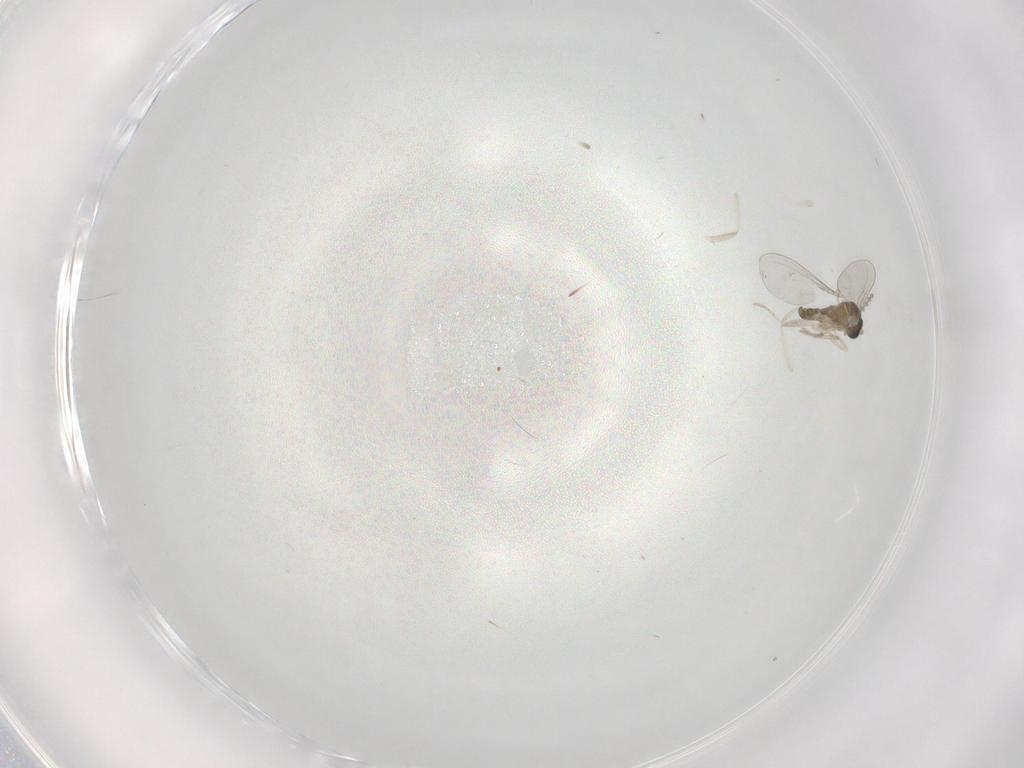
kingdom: Animalia
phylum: Arthropoda
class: Insecta
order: Diptera
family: Cecidomyiidae
